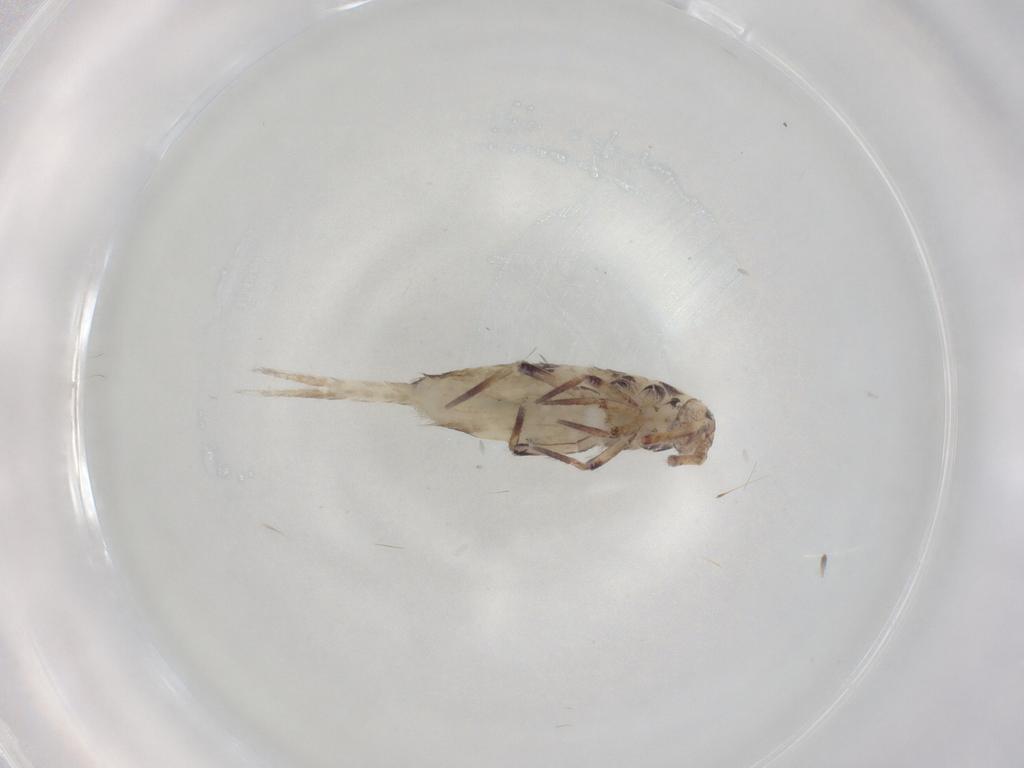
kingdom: Animalia
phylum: Arthropoda
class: Collembola
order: Entomobryomorpha
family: Entomobryidae
